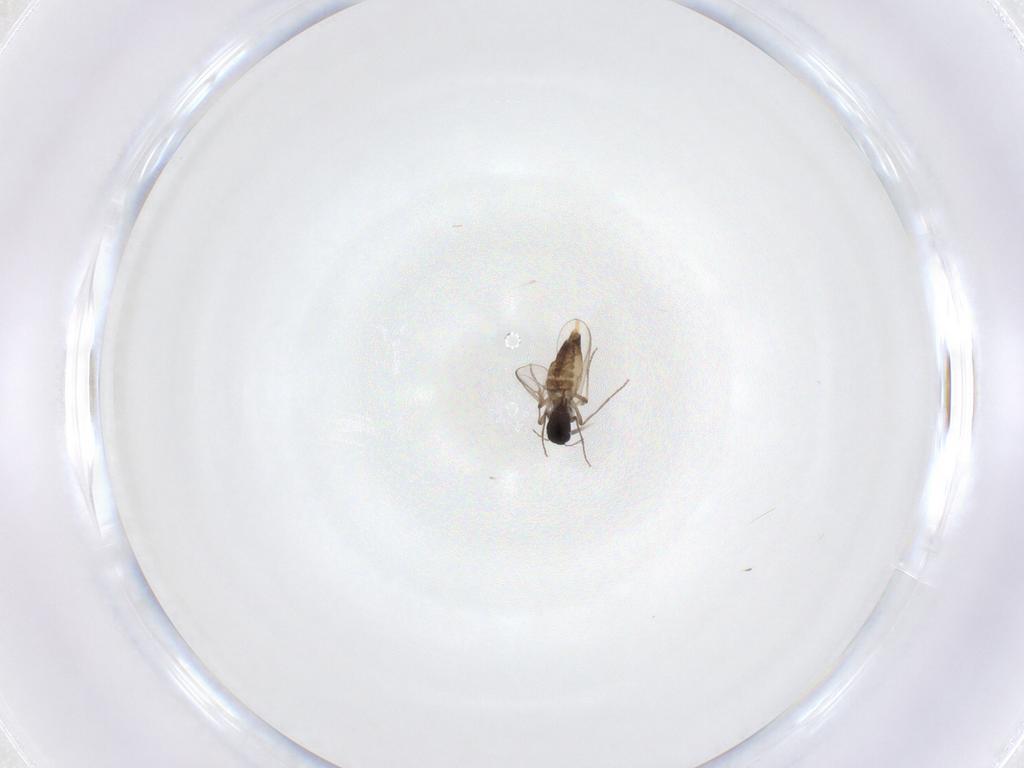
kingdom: Animalia
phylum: Arthropoda
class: Insecta
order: Diptera
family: Chironomidae
